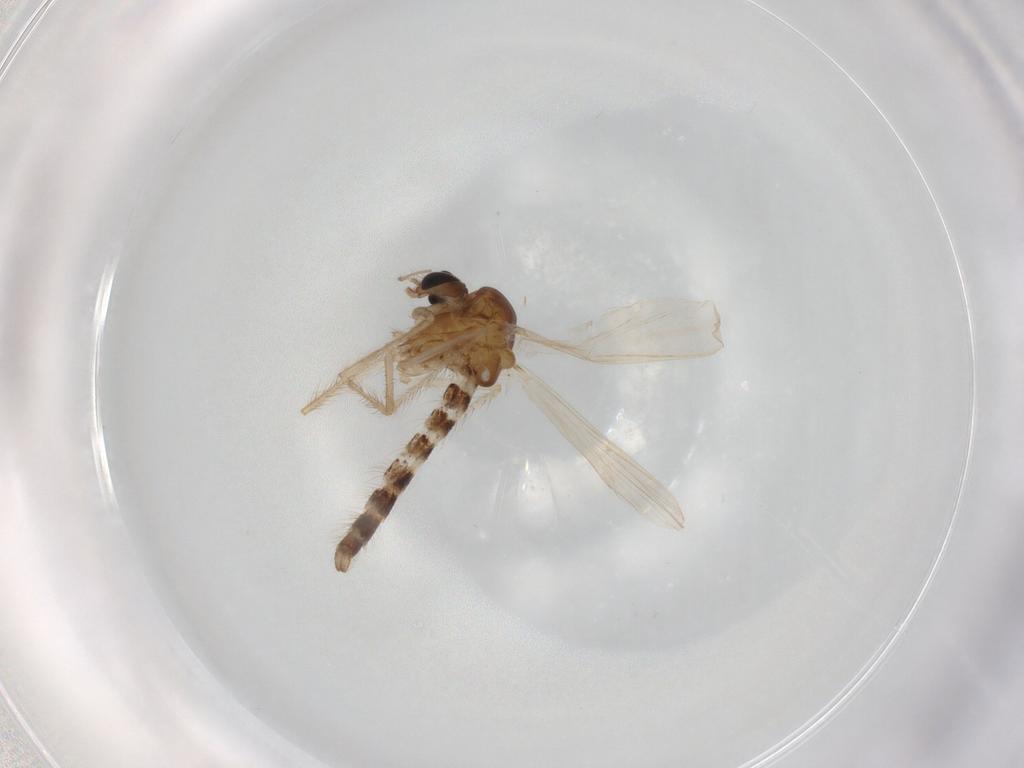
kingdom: Animalia
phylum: Arthropoda
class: Insecta
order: Diptera
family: Chironomidae
